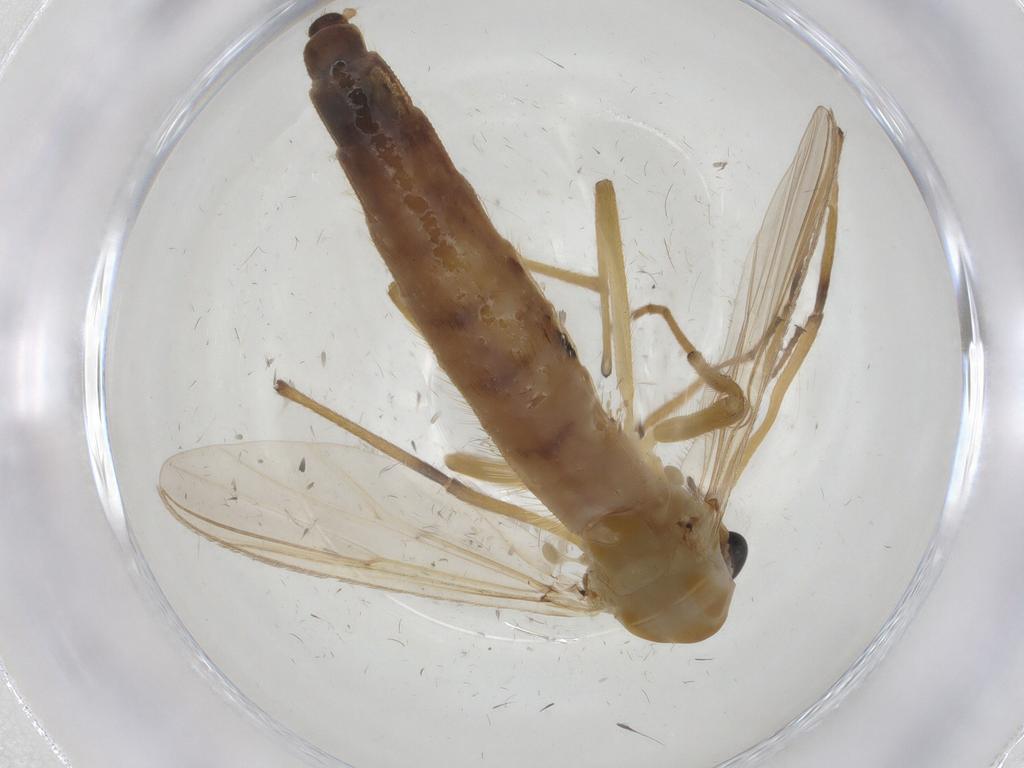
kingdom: Animalia
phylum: Arthropoda
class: Insecta
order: Diptera
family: Chironomidae
